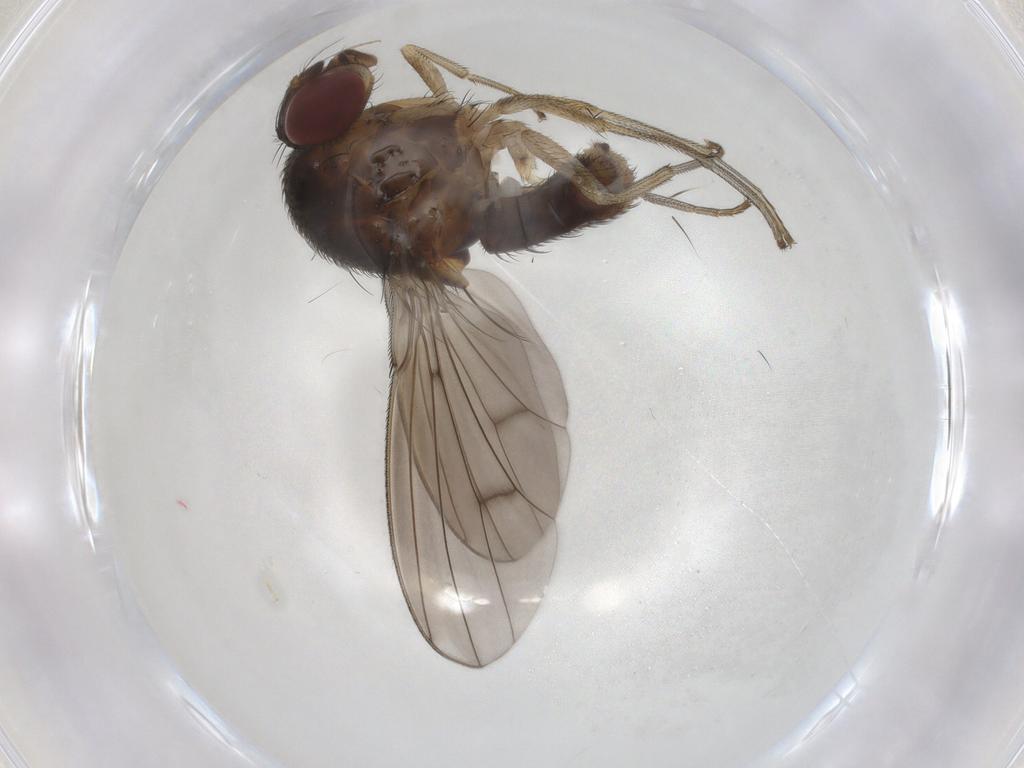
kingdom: Animalia
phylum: Arthropoda
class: Insecta
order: Diptera
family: Curtonotidae
